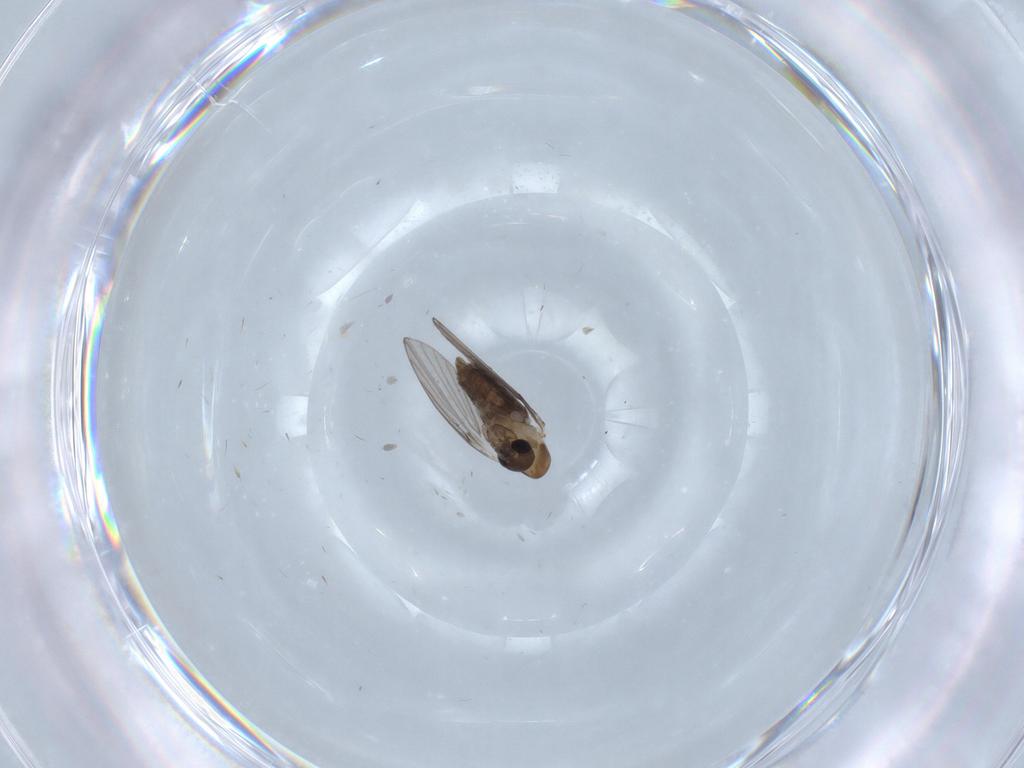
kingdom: Animalia
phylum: Arthropoda
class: Insecta
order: Diptera
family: Psychodidae
